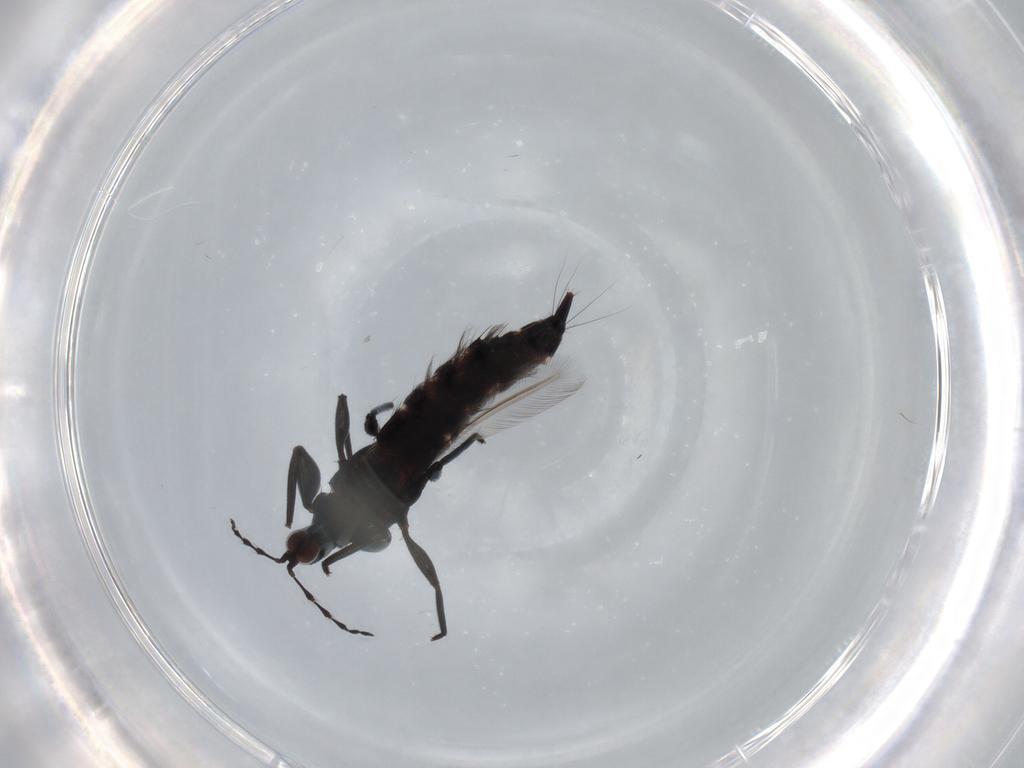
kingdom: Animalia
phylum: Arthropoda
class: Insecta
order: Thysanoptera
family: Phlaeothripidae
